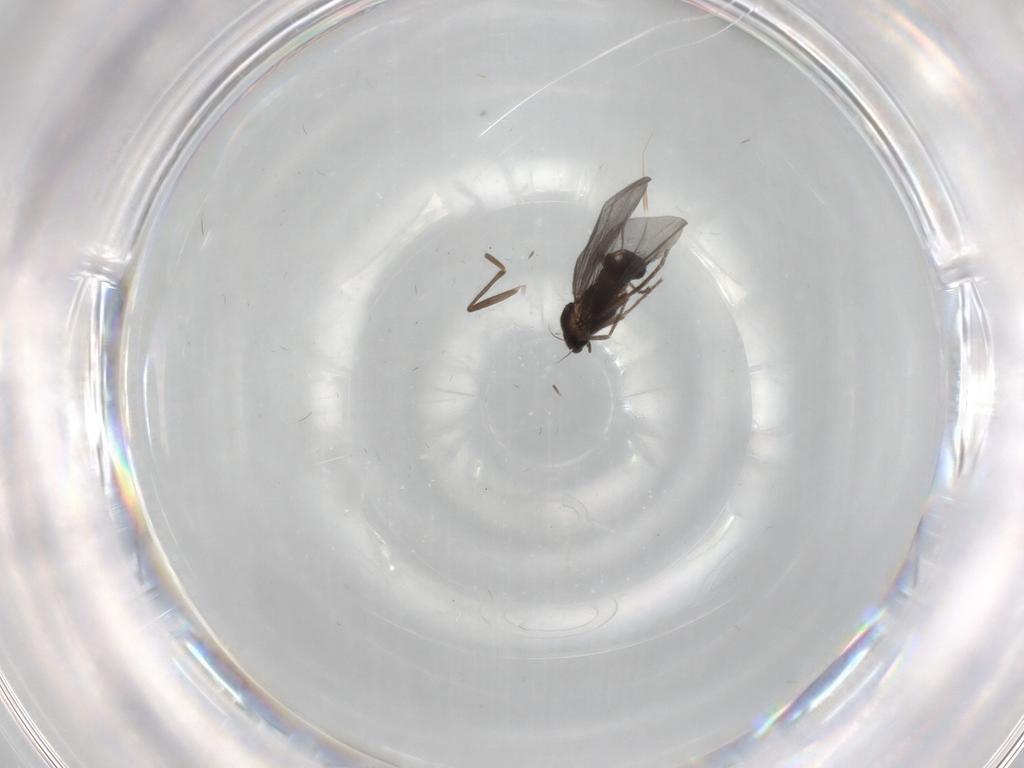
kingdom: Animalia
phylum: Arthropoda
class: Insecta
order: Diptera
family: Phoridae
